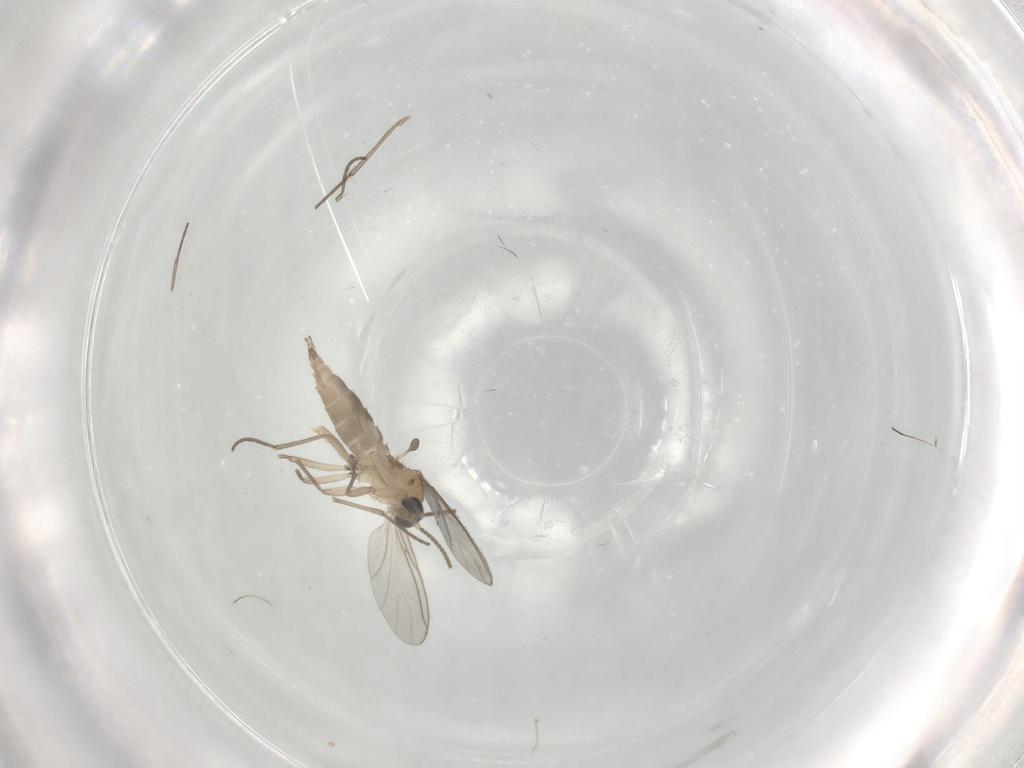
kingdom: Animalia
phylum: Arthropoda
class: Insecta
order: Diptera
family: Sciaridae
